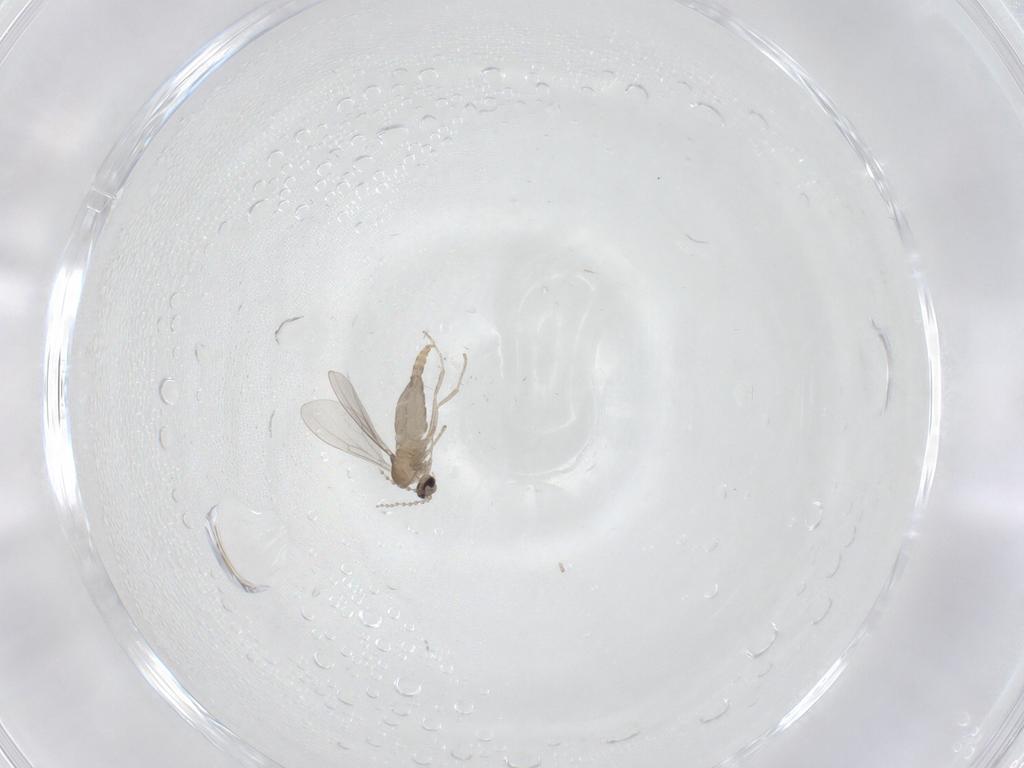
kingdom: Animalia
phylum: Arthropoda
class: Insecta
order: Diptera
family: Cecidomyiidae
